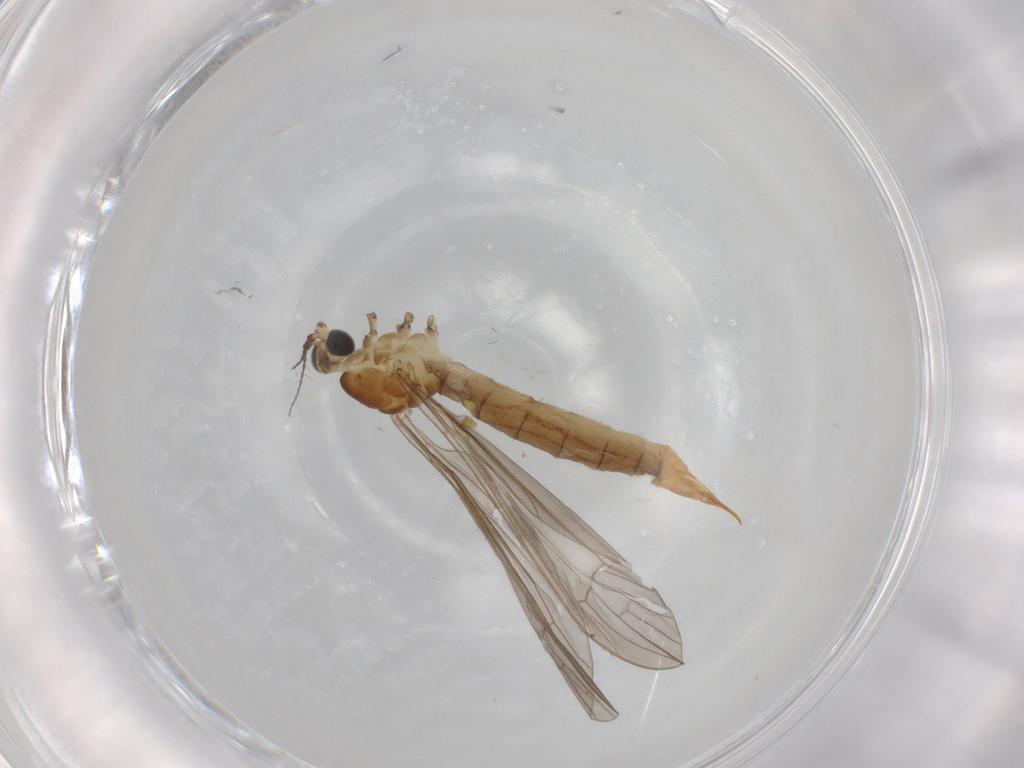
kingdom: Animalia
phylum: Arthropoda
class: Insecta
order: Diptera
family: Limoniidae
